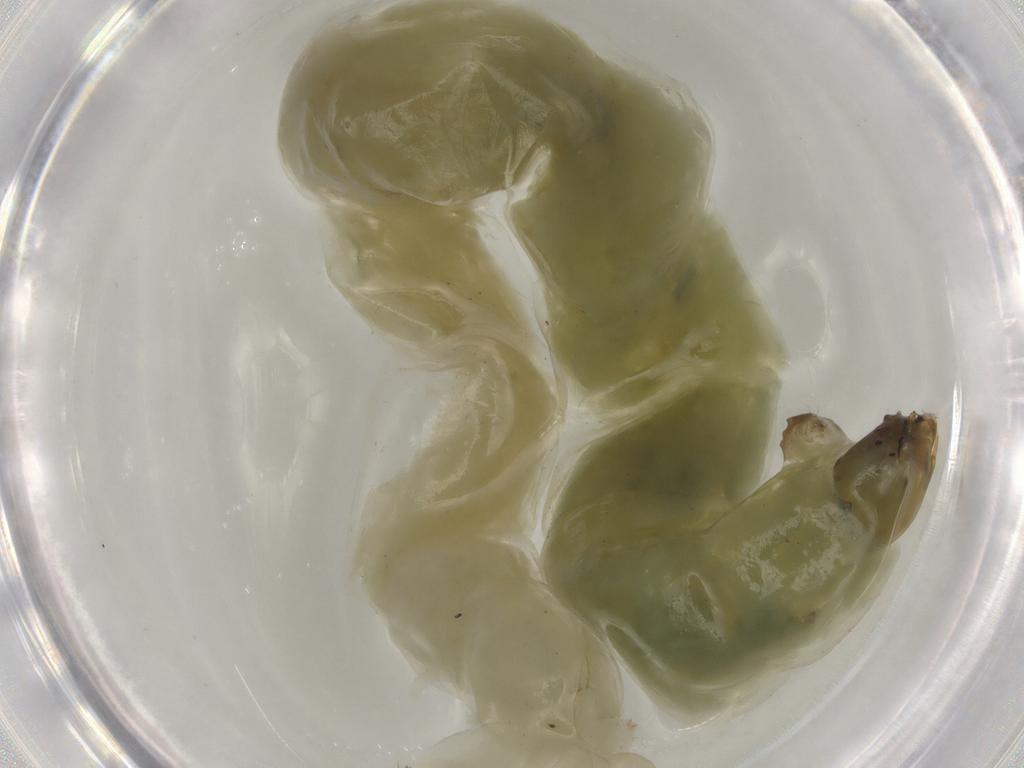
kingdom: Animalia
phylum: Arthropoda
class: Insecta
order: Diptera
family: Chironomidae
